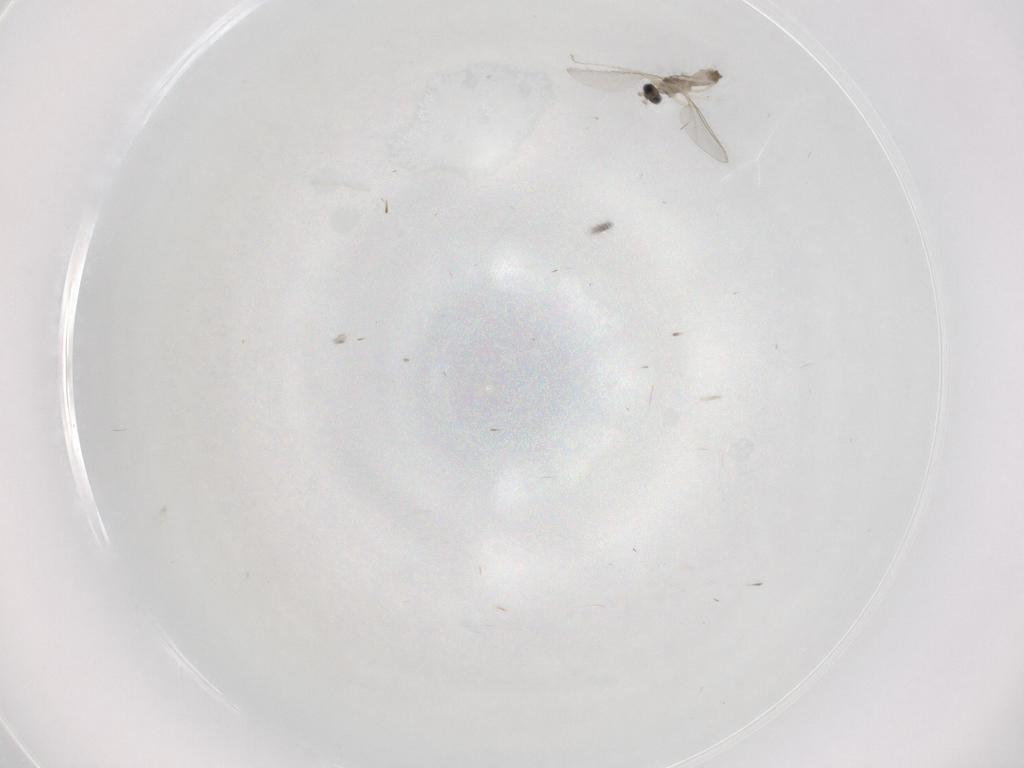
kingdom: Animalia
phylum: Arthropoda
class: Insecta
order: Diptera
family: Cecidomyiidae
